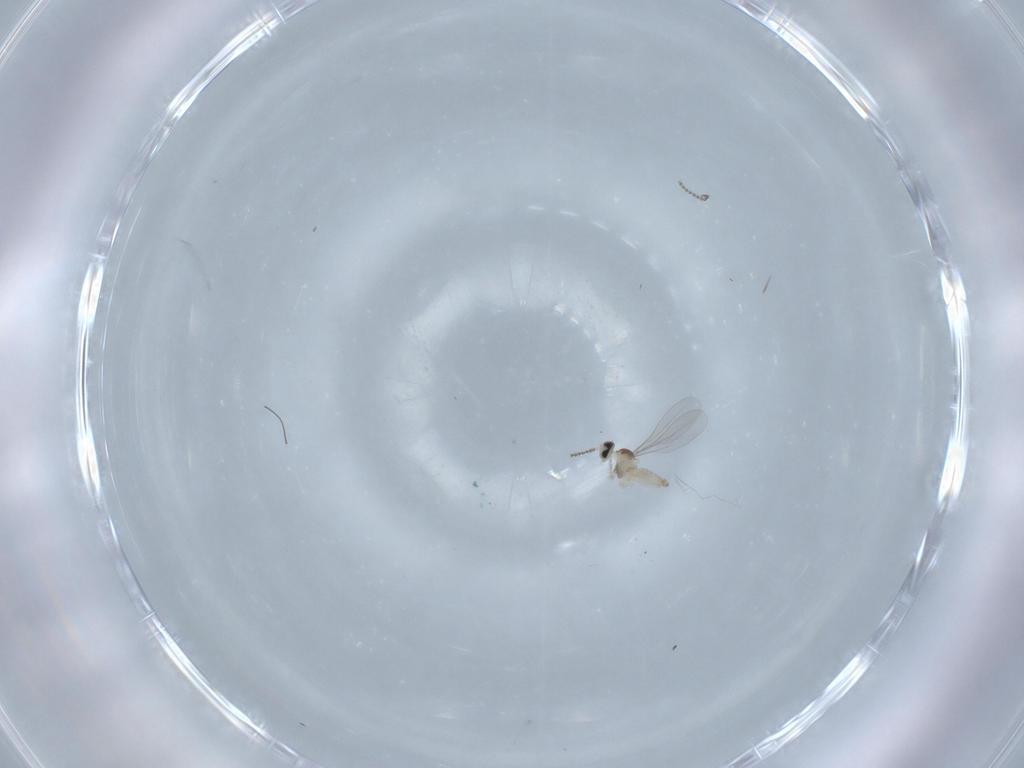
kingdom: Animalia
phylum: Arthropoda
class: Insecta
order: Diptera
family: Cecidomyiidae
